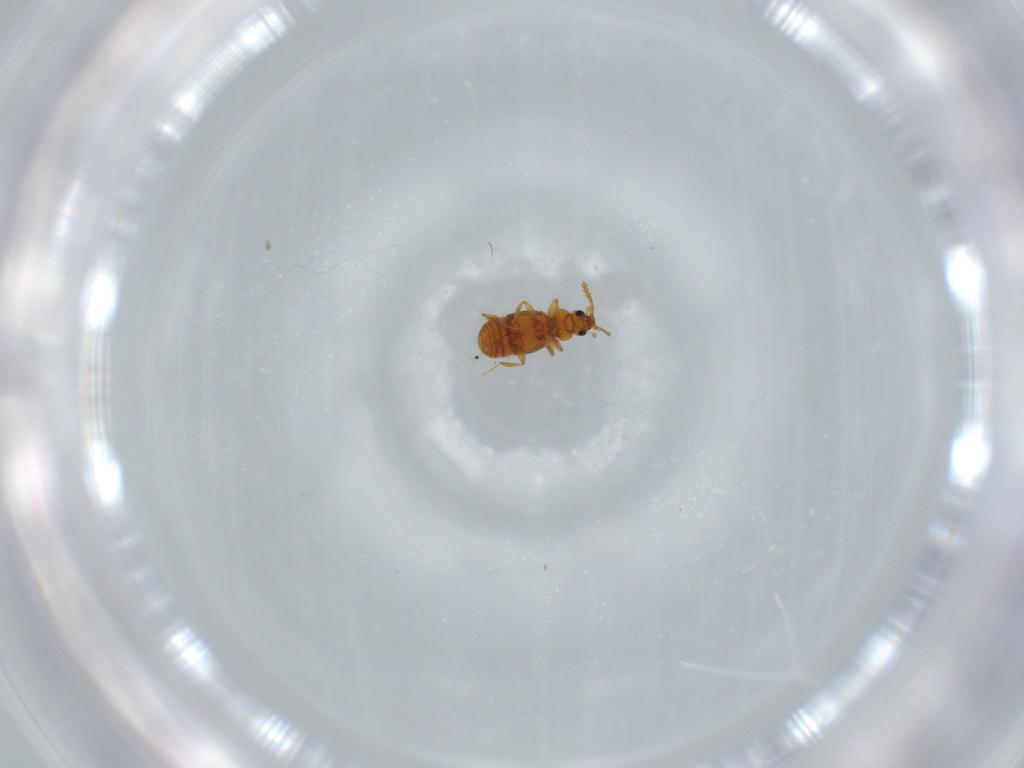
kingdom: Animalia
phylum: Arthropoda
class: Insecta
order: Coleoptera
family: Staphylinidae
